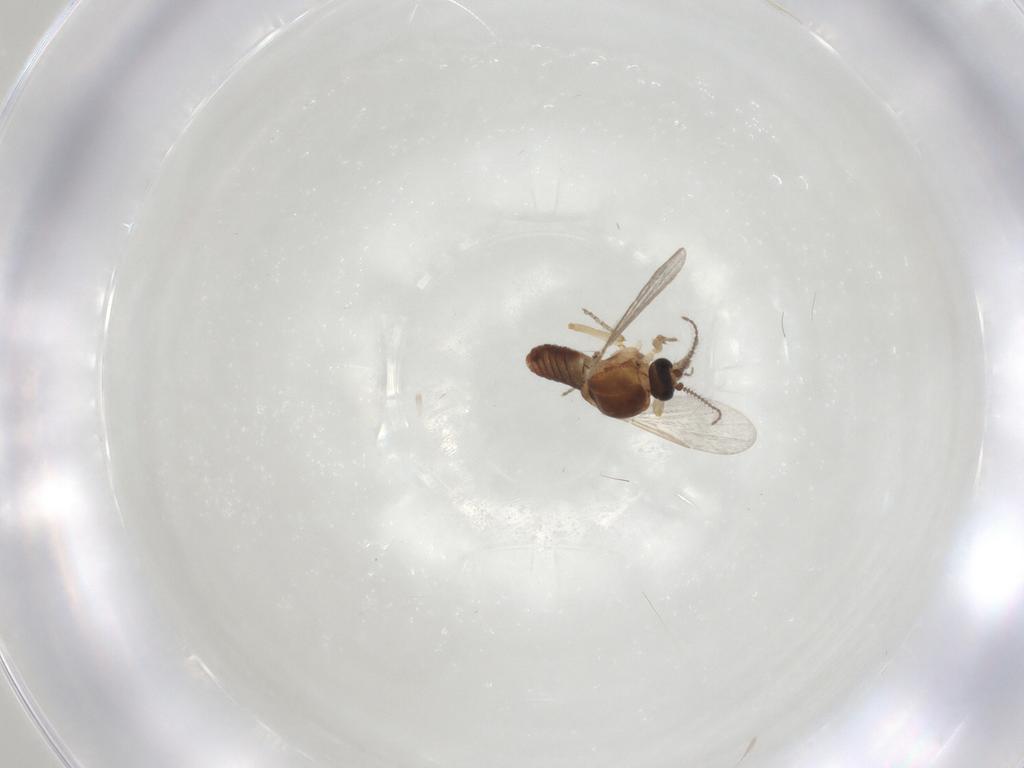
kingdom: Animalia
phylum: Arthropoda
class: Insecta
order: Diptera
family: Ceratopogonidae
